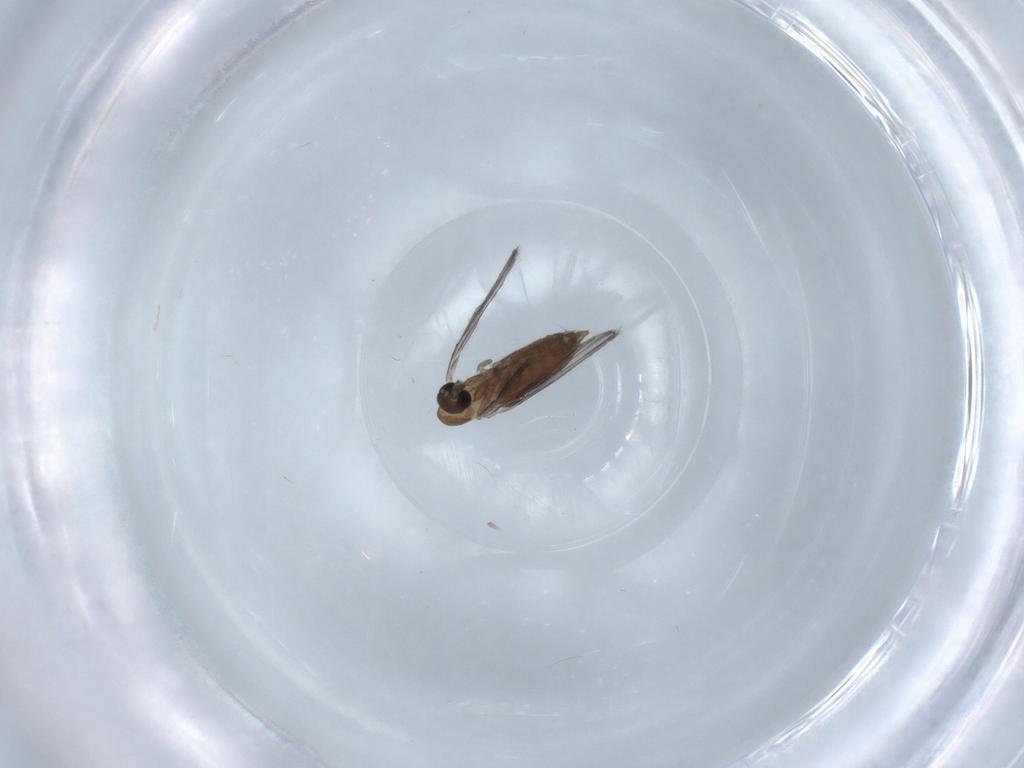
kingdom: Animalia
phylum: Arthropoda
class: Insecta
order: Diptera
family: Psychodidae
